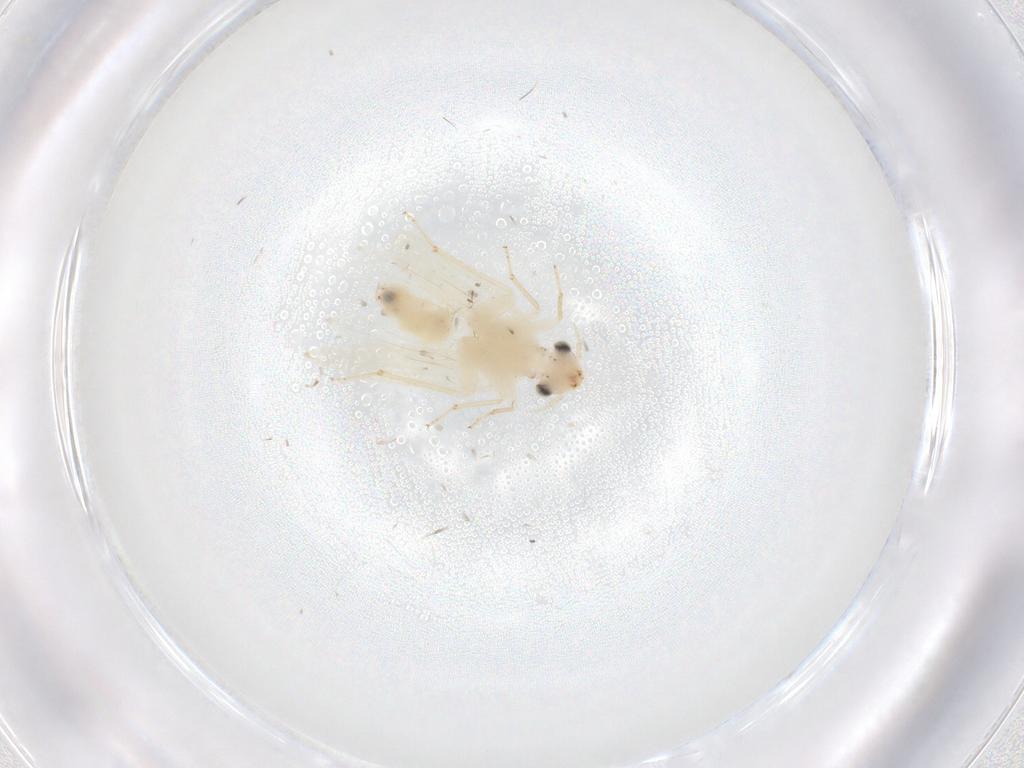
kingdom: Animalia
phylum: Arthropoda
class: Insecta
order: Psocodea
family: Lepidopsocidae
